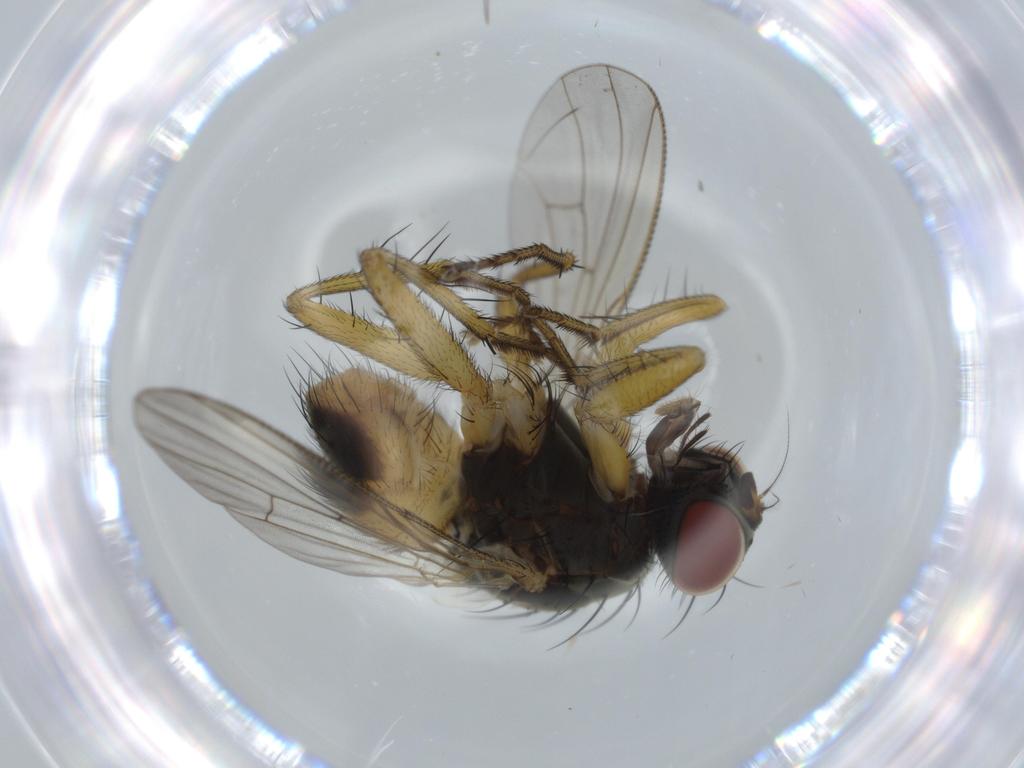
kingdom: Animalia
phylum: Arthropoda
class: Insecta
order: Diptera
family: Muscidae
